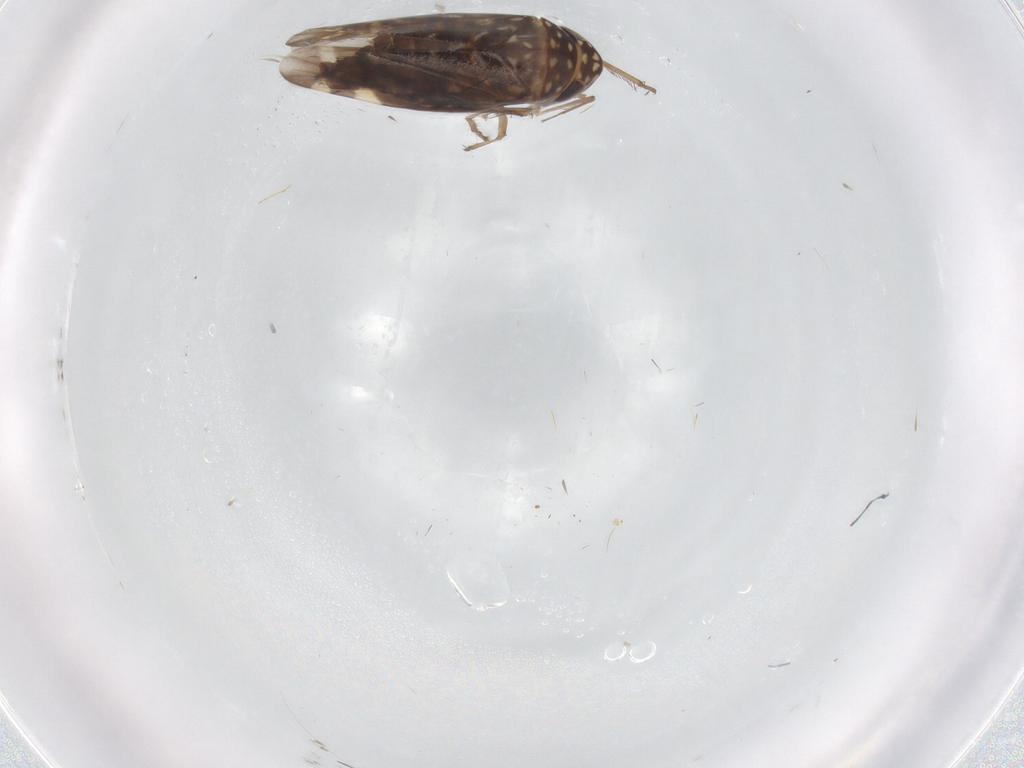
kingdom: Animalia
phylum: Arthropoda
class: Insecta
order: Hemiptera
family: Cicadellidae
